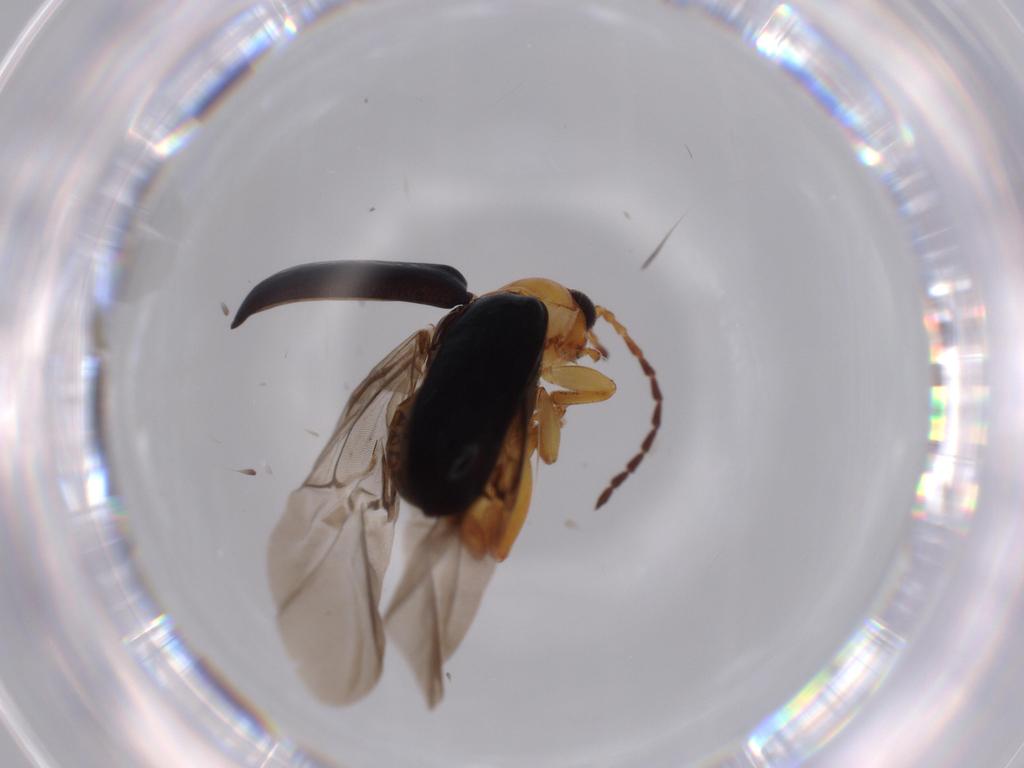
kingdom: Animalia
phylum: Arthropoda
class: Insecta
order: Coleoptera
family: Chrysomelidae
